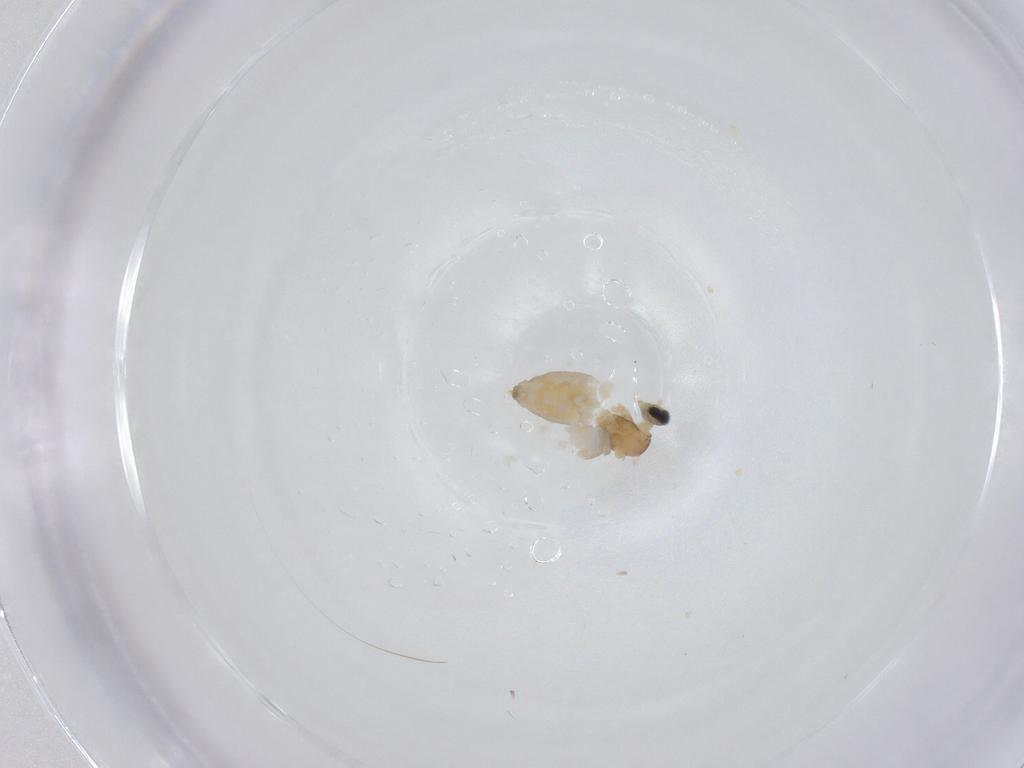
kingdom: Animalia
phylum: Arthropoda
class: Insecta
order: Diptera
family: Cecidomyiidae
